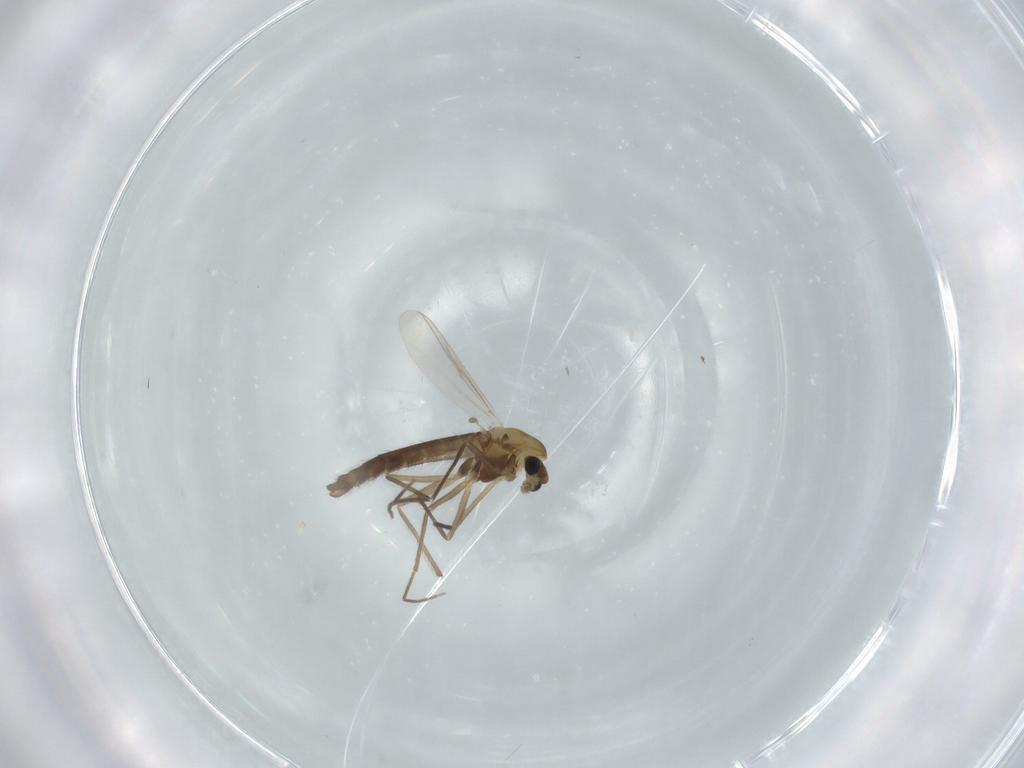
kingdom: Animalia
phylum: Arthropoda
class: Insecta
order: Diptera
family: Chironomidae
